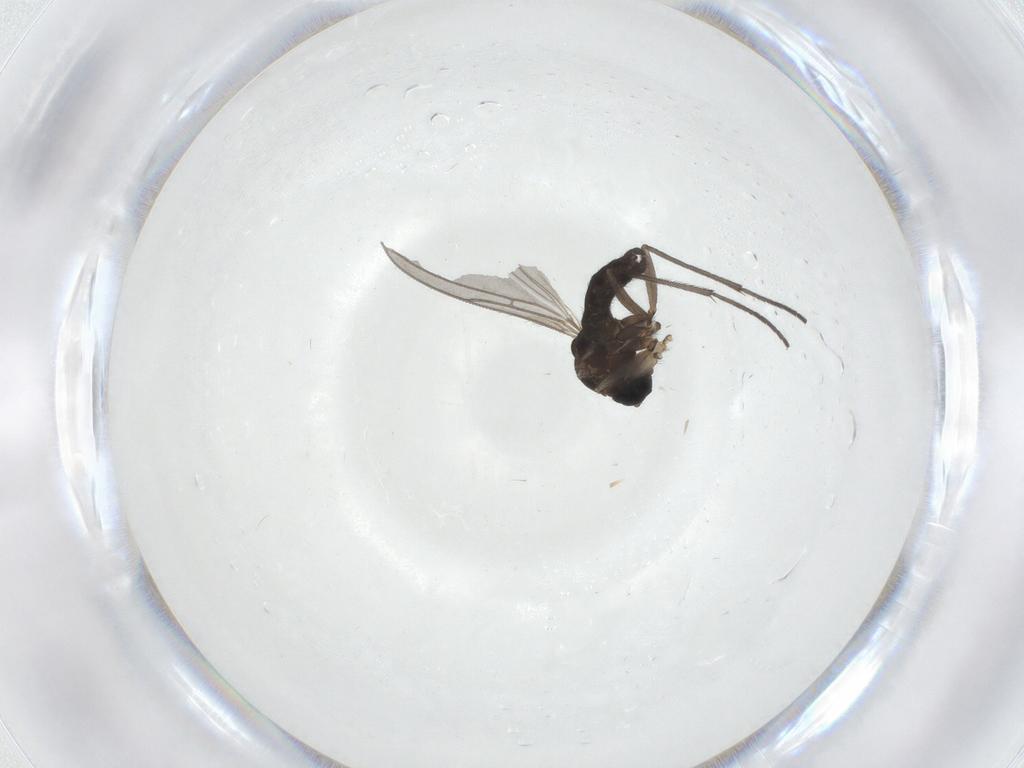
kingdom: Animalia
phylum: Arthropoda
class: Insecta
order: Diptera
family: Sciaridae
